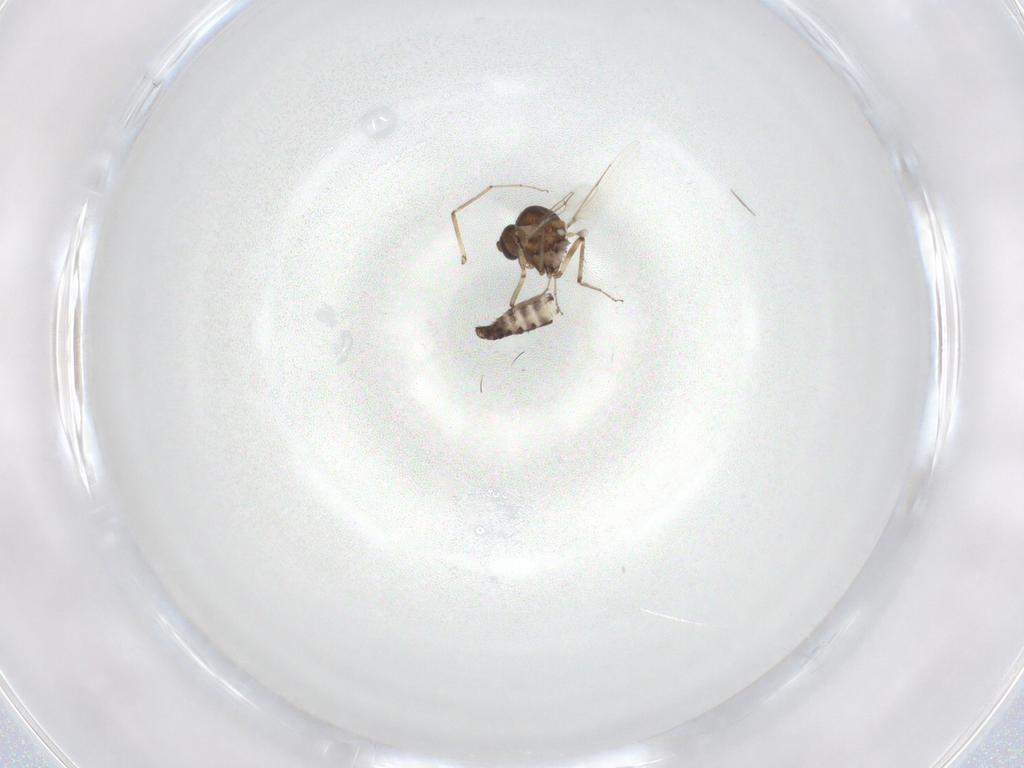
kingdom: Animalia
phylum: Arthropoda
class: Insecta
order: Diptera
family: Ceratopogonidae
